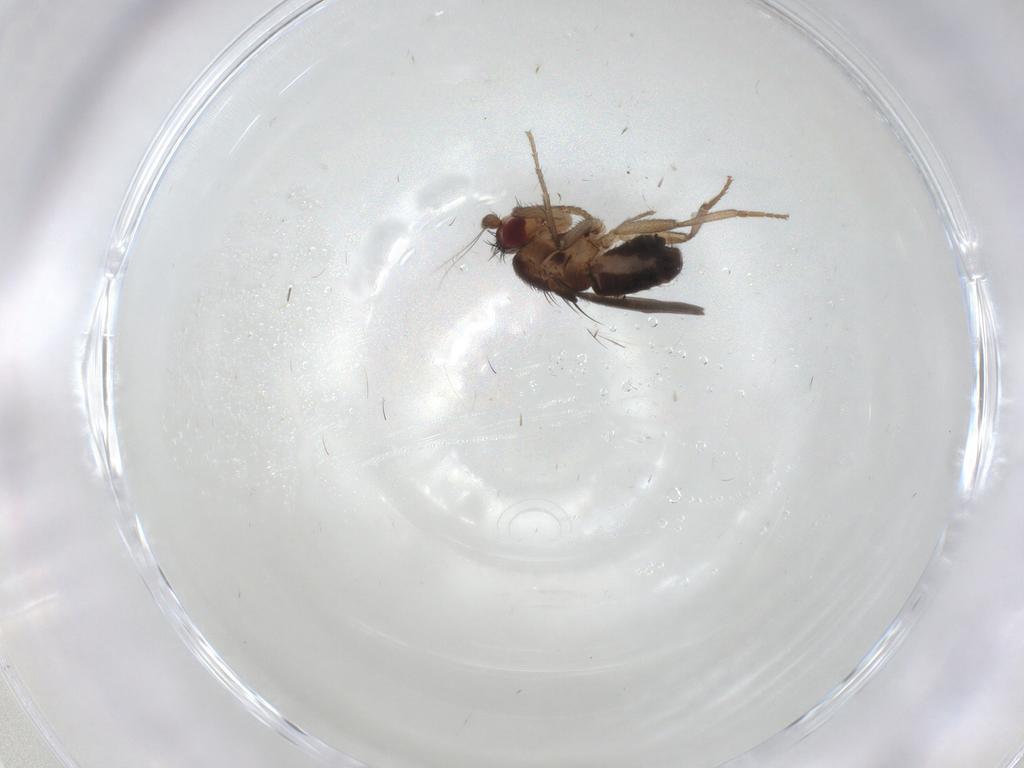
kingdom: Animalia
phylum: Arthropoda
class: Insecta
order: Diptera
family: Sphaeroceridae
